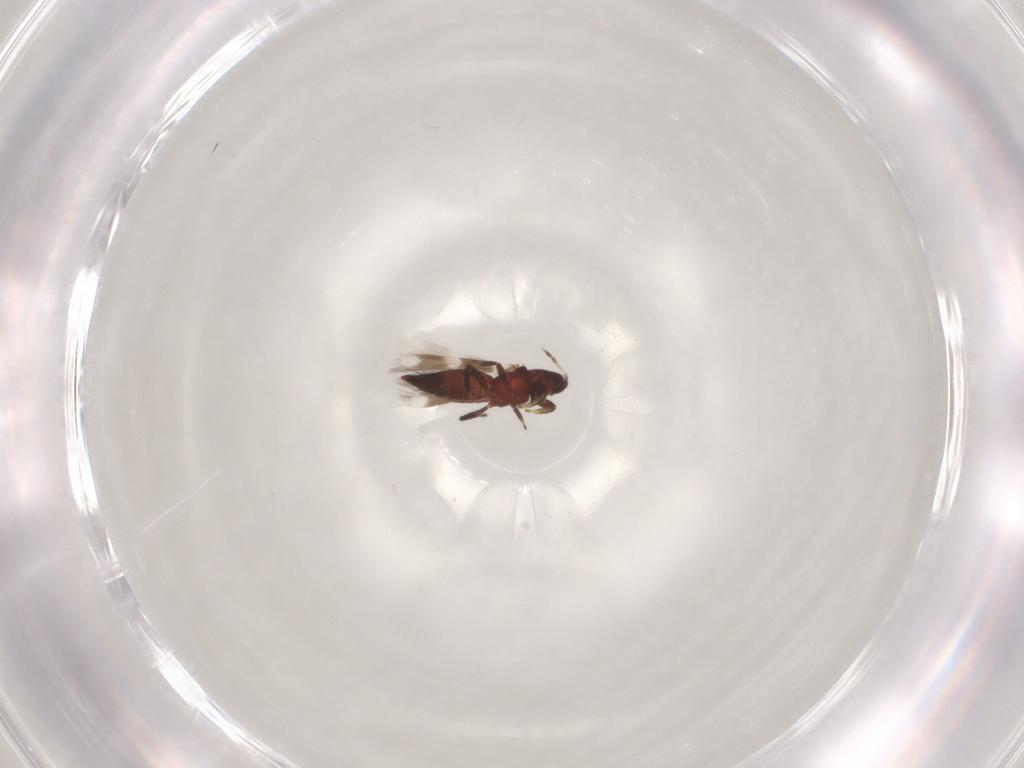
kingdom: Animalia
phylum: Arthropoda
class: Insecta
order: Thysanoptera
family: Aeolothripidae
